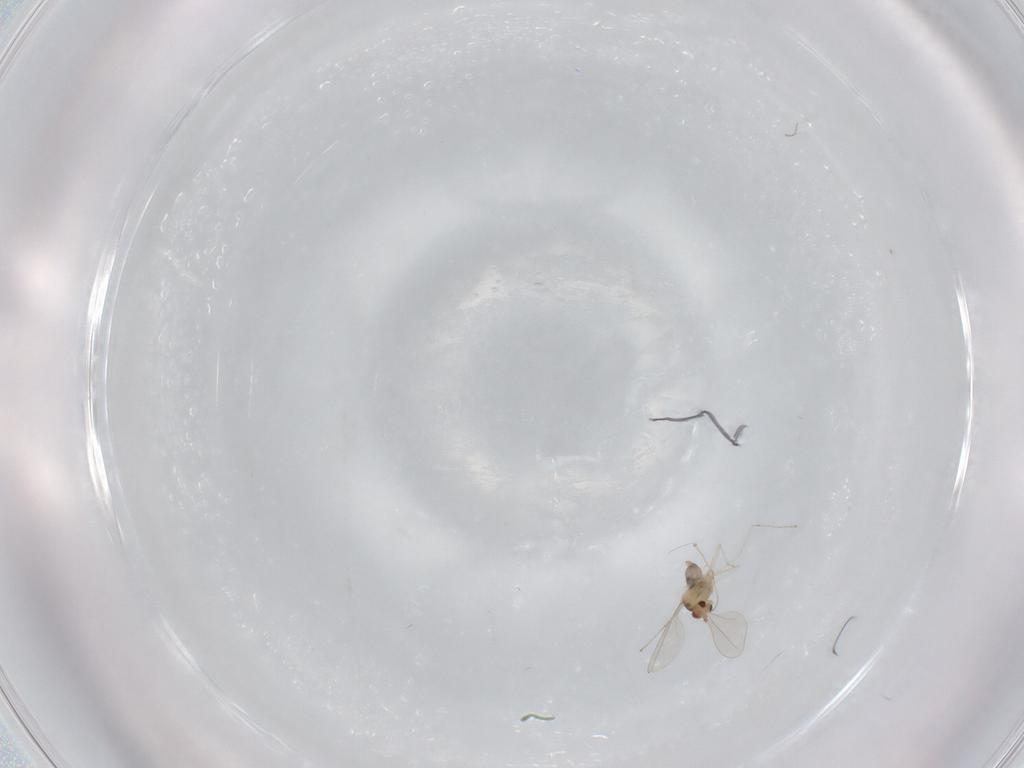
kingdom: Animalia
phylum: Arthropoda
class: Insecta
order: Diptera
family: Cecidomyiidae
